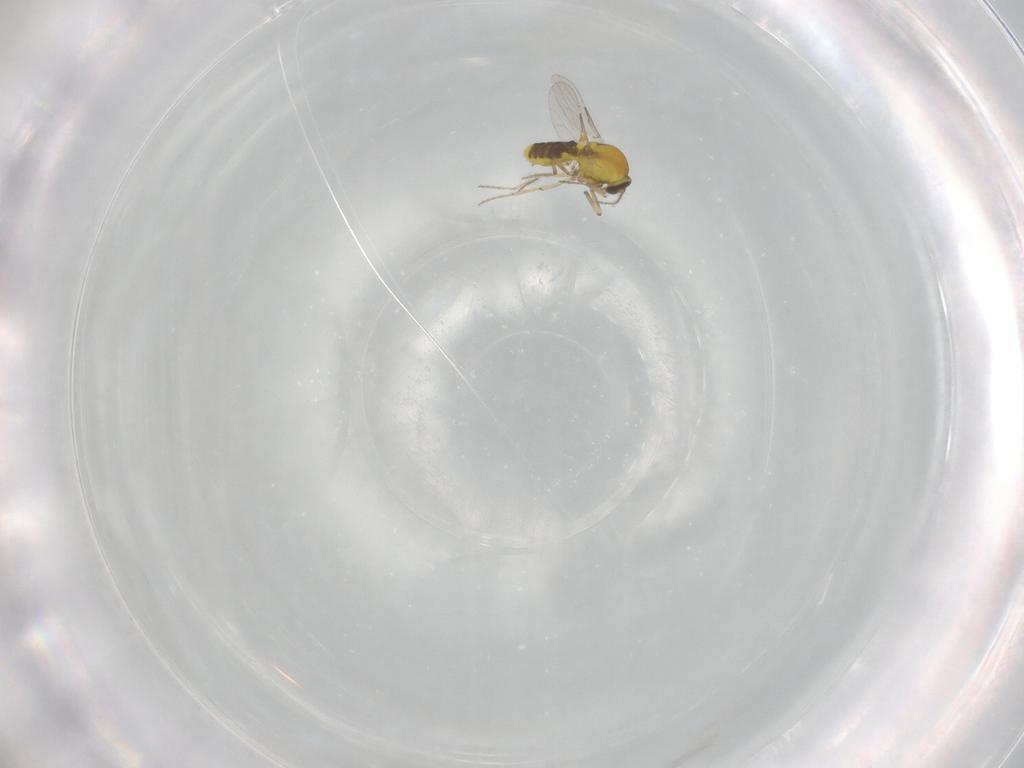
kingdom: Animalia
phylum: Arthropoda
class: Insecta
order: Diptera
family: Ceratopogonidae
